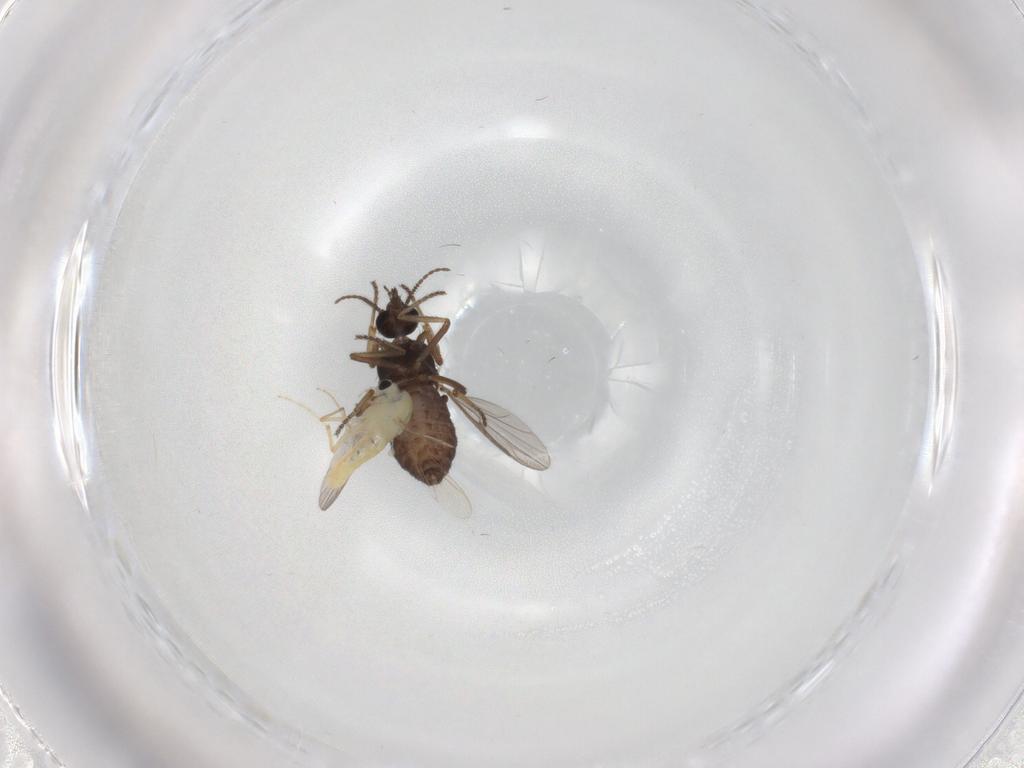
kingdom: Animalia
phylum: Arthropoda
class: Insecta
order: Diptera
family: Ceratopogonidae
